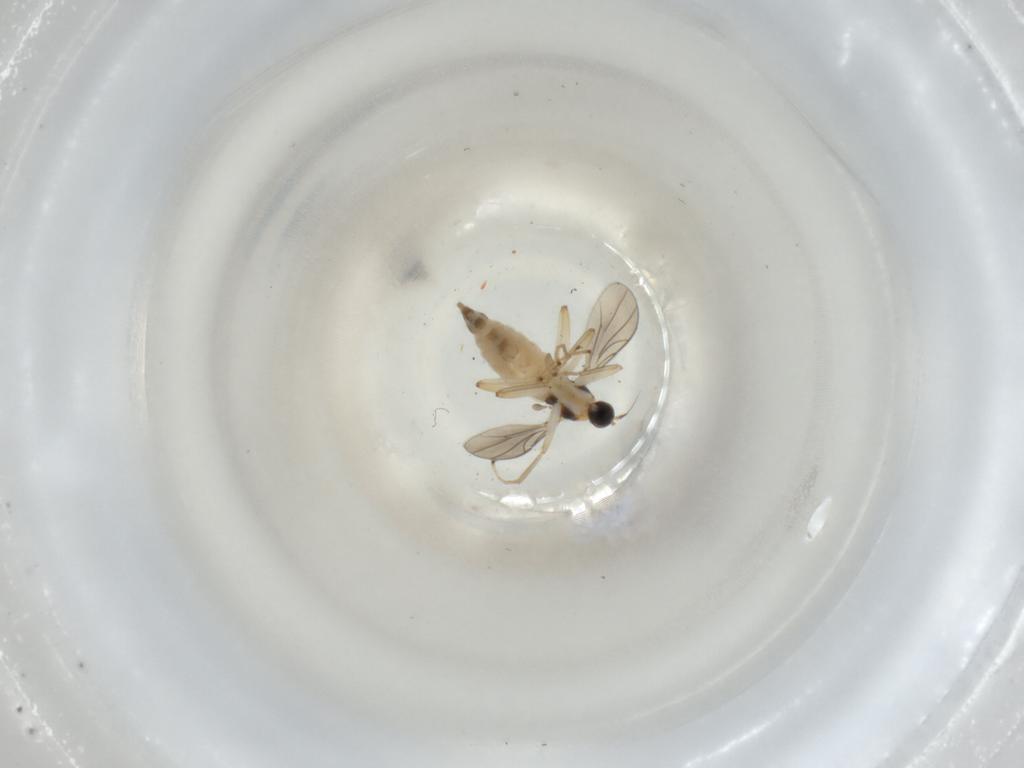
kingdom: Animalia
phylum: Arthropoda
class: Insecta
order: Diptera
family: Hybotidae
